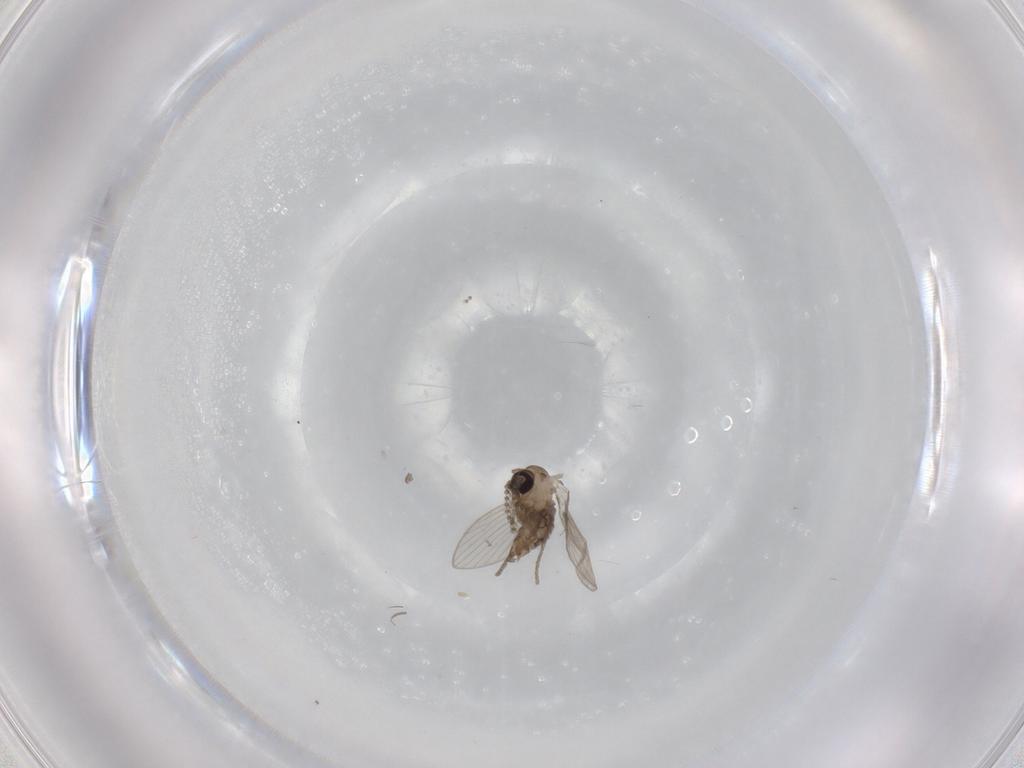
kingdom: Animalia
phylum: Arthropoda
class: Insecta
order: Diptera
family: Psychodidae
